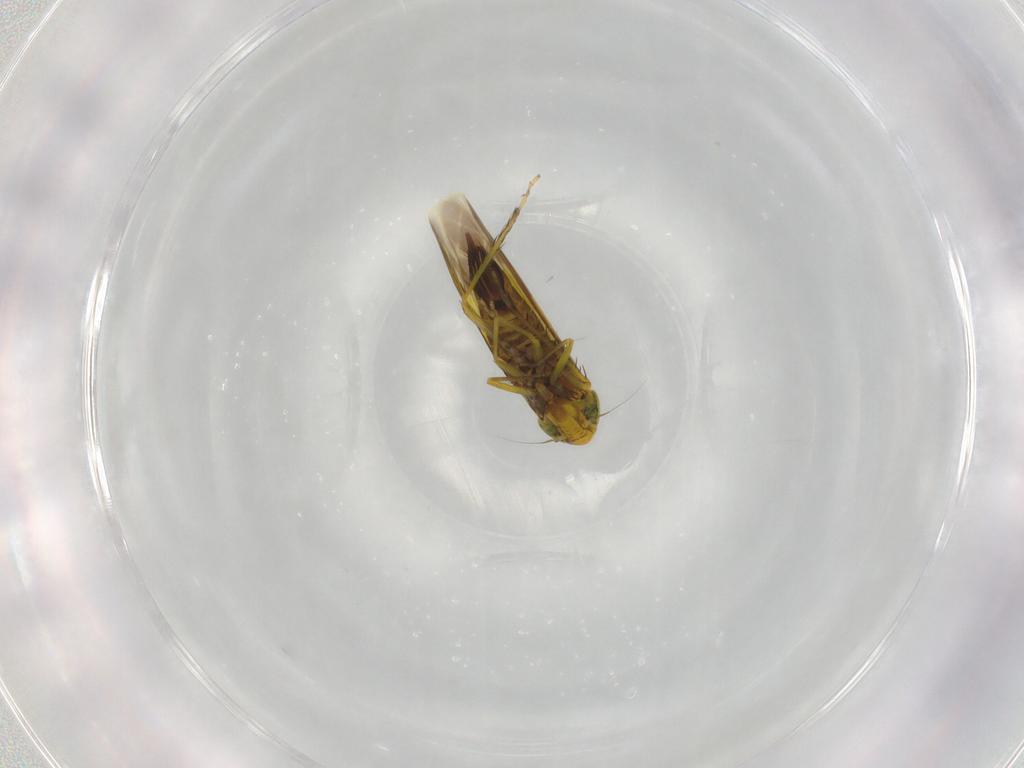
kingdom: Animalia
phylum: Arthropoda
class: Insecta
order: Hemiptera
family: Cicadellidae
